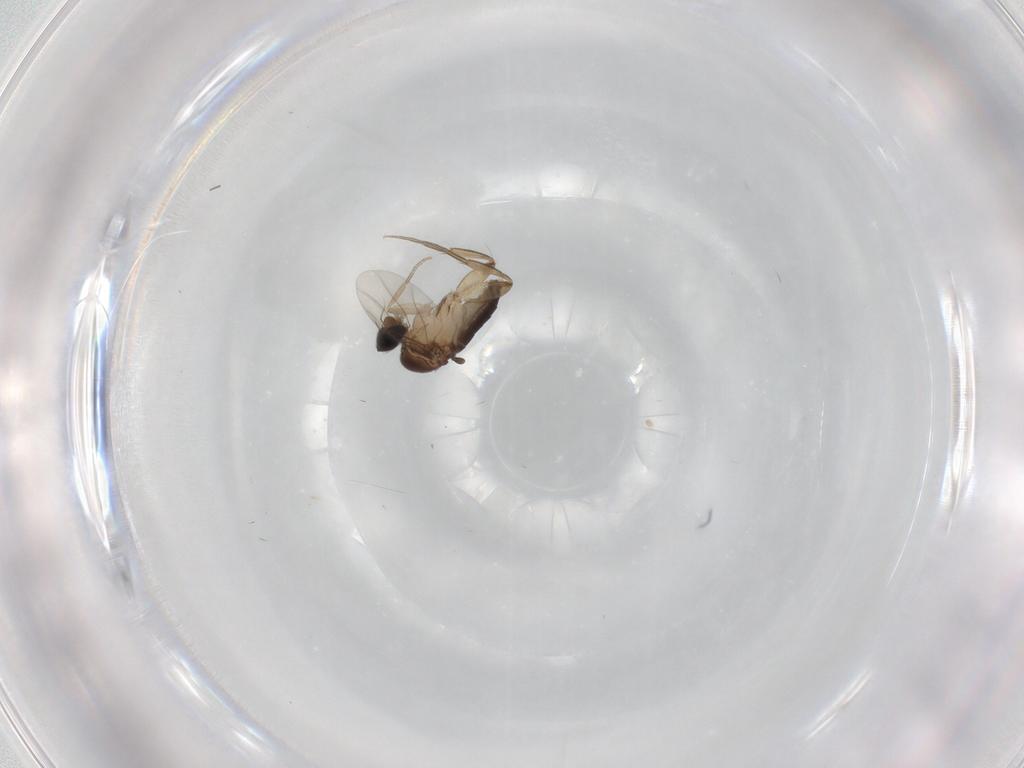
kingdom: Animalia
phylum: Arthropoda
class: Insecta
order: Diptera
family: Phoridae
